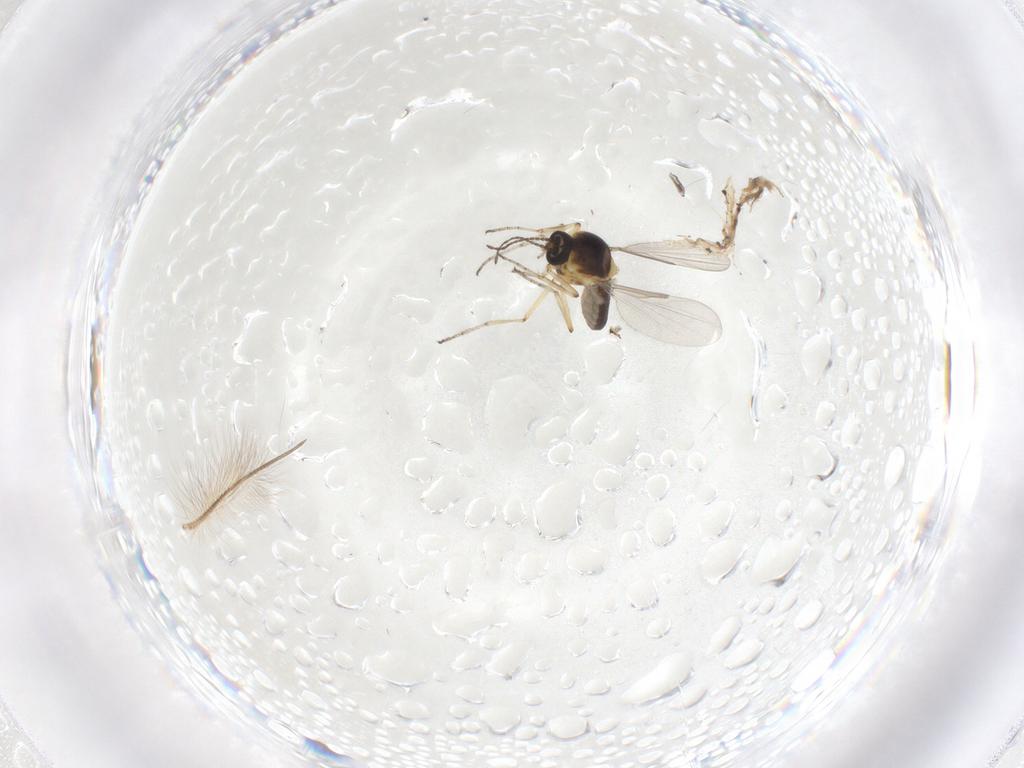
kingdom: Animalia
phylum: Arthropoda
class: Insecta
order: Diptera
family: Ceratopogonidae
